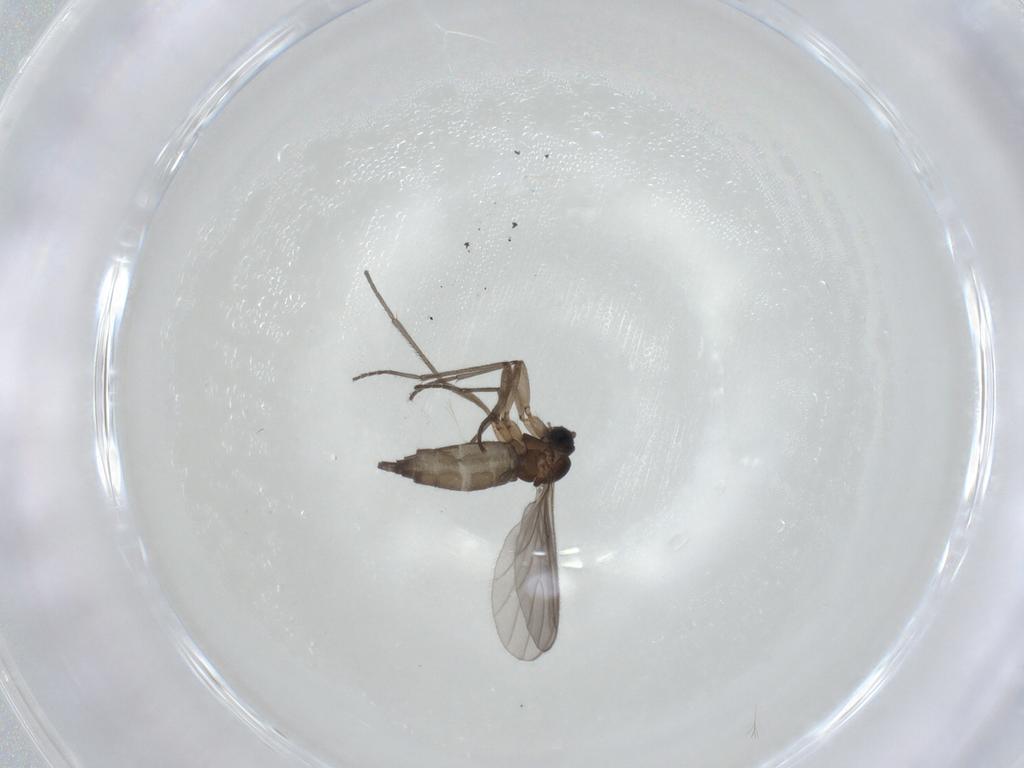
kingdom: Animalia
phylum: Arthropoda
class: Insecta
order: Diptera
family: Sciaridae
